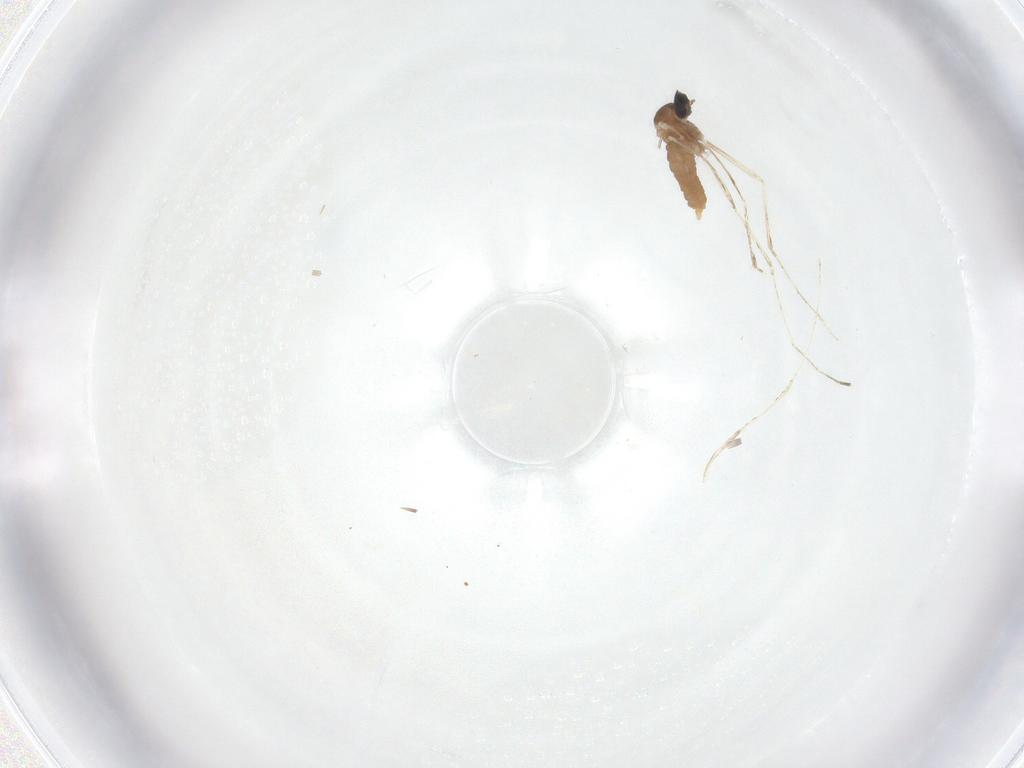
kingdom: Animalia
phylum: Arthropoda
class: Insecta
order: Diptera
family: Cecidomyiidae
